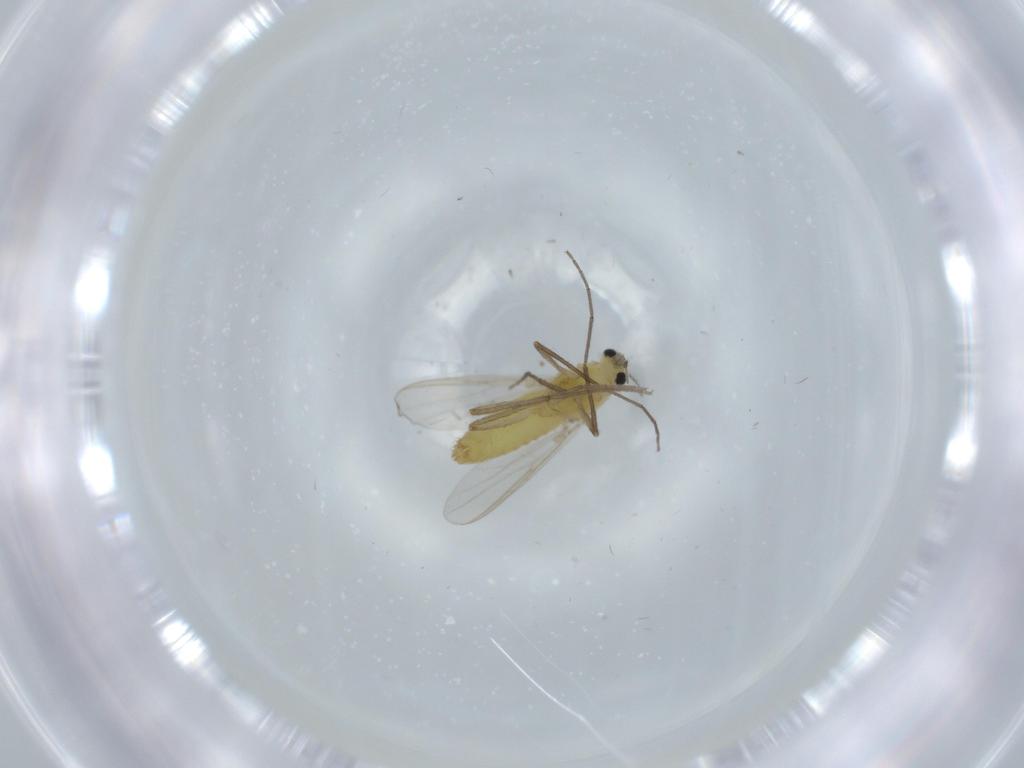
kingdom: Animalia
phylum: Arthropoda
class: Insecta
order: Diptera
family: Chironomidae
